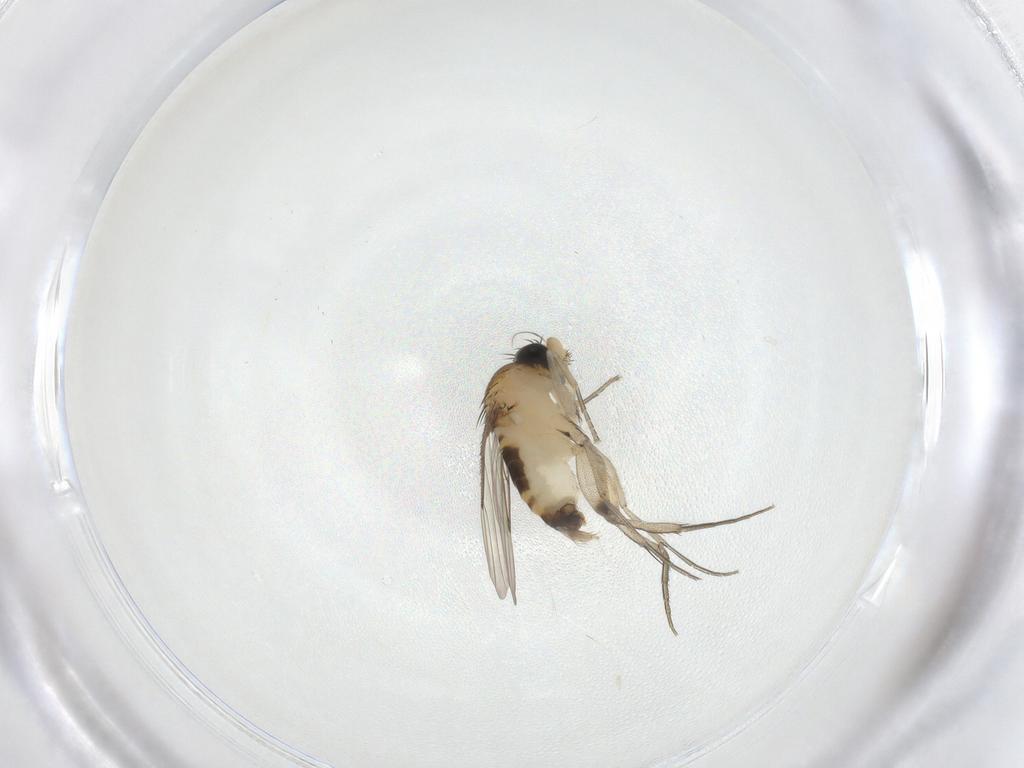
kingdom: Animalia
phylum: Arthropoda
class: Insecta
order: Diptera
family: Phoridae
